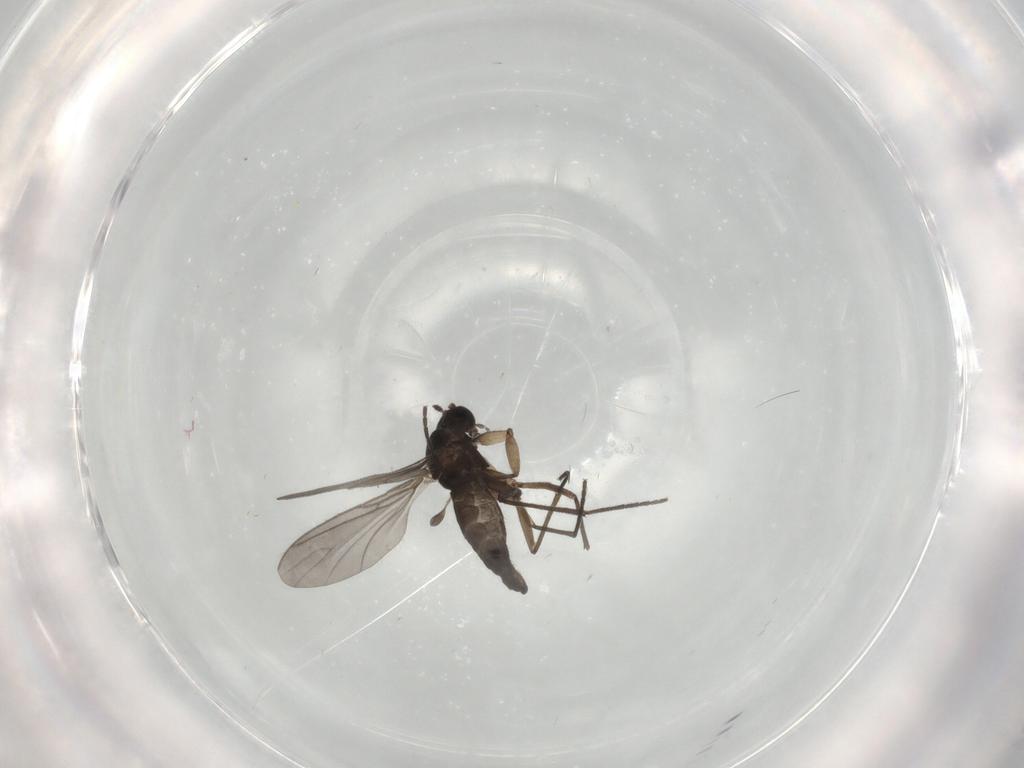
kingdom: Animalia
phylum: Arthropoda
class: Insecta
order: Diptera
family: Sciaridae
